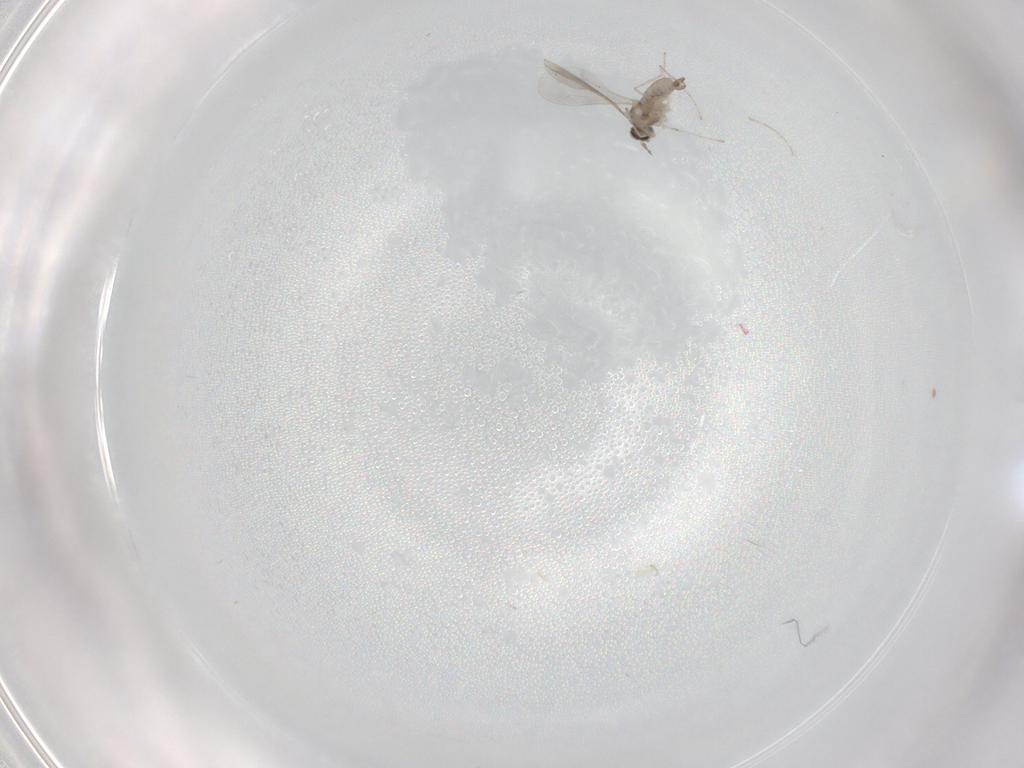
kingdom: Animalia
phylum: Arthropoda
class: Insecta
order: Diptera
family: Cecidomyiidae
